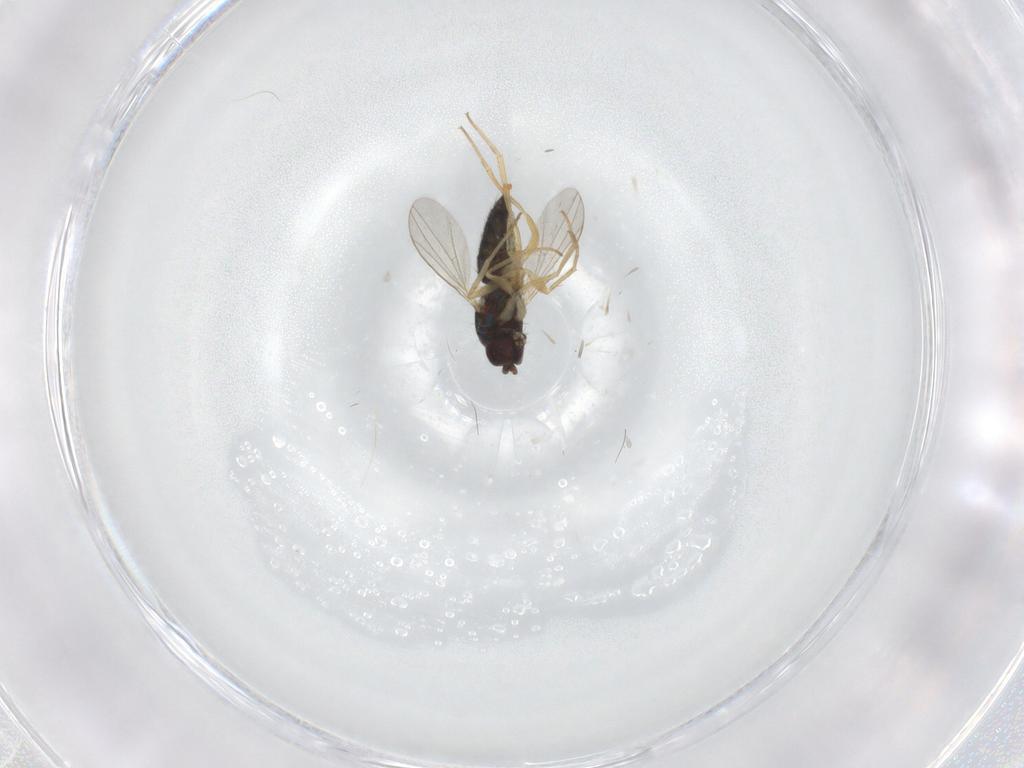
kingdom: Animalia
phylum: Arthropoda
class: Insecta
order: Diptera
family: Dolichopodidae
